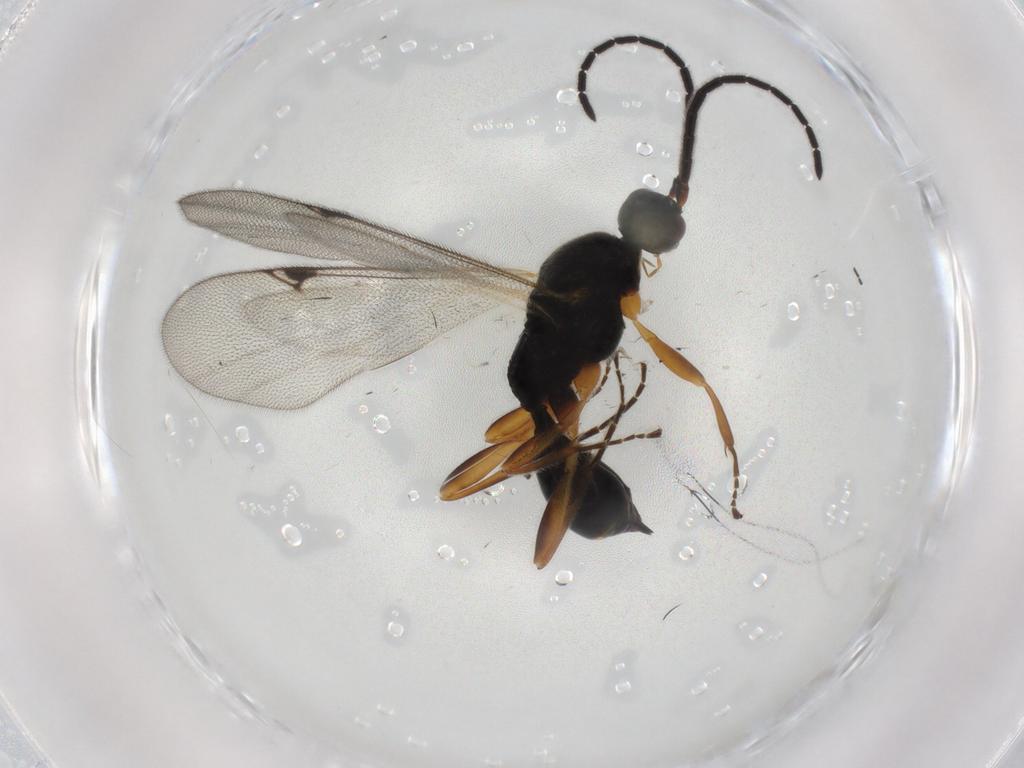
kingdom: Animalia
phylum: Arthropoda
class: Insecta
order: Hymenoptera
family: Proctotrupidae
